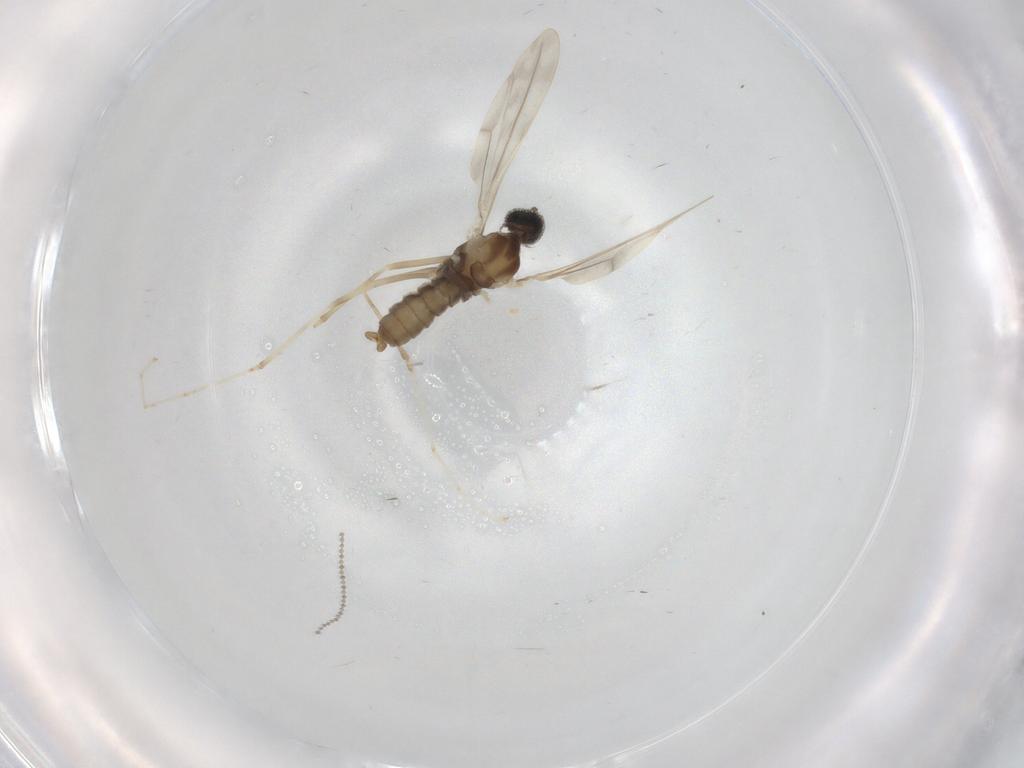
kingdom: Animalia
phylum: Arthropoda
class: Insecta
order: Diptera
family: Cecidomyiidae
